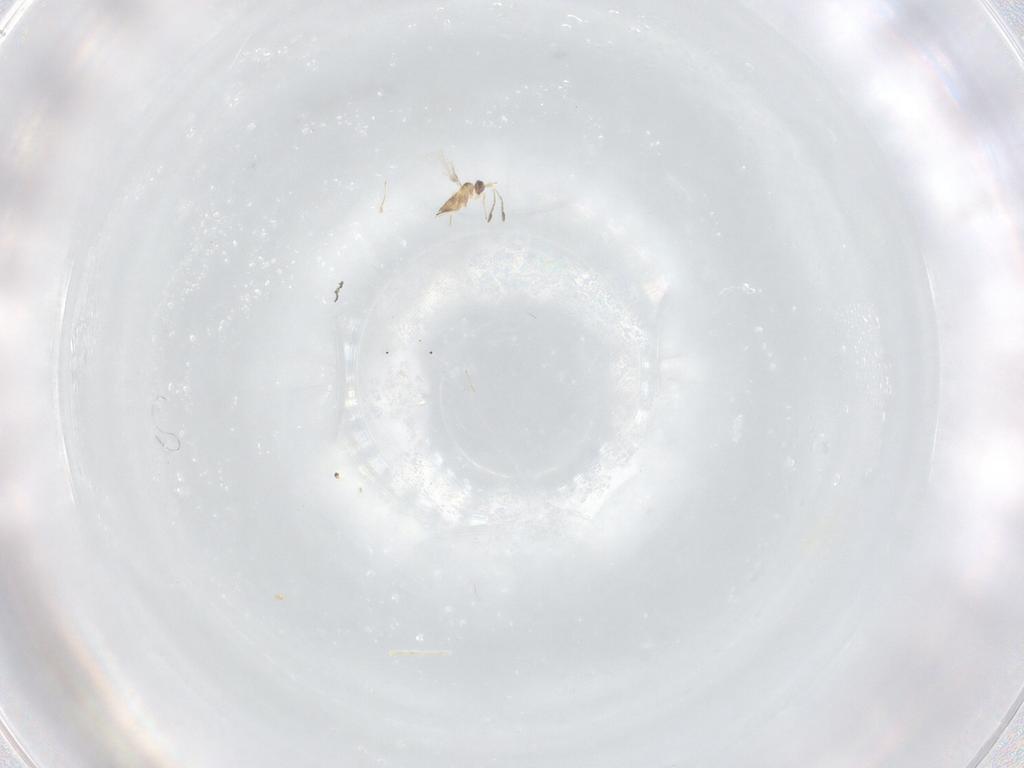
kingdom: Animalia
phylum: Arthropoda
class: Insecta
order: Hymenoptera
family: Mymaridae
